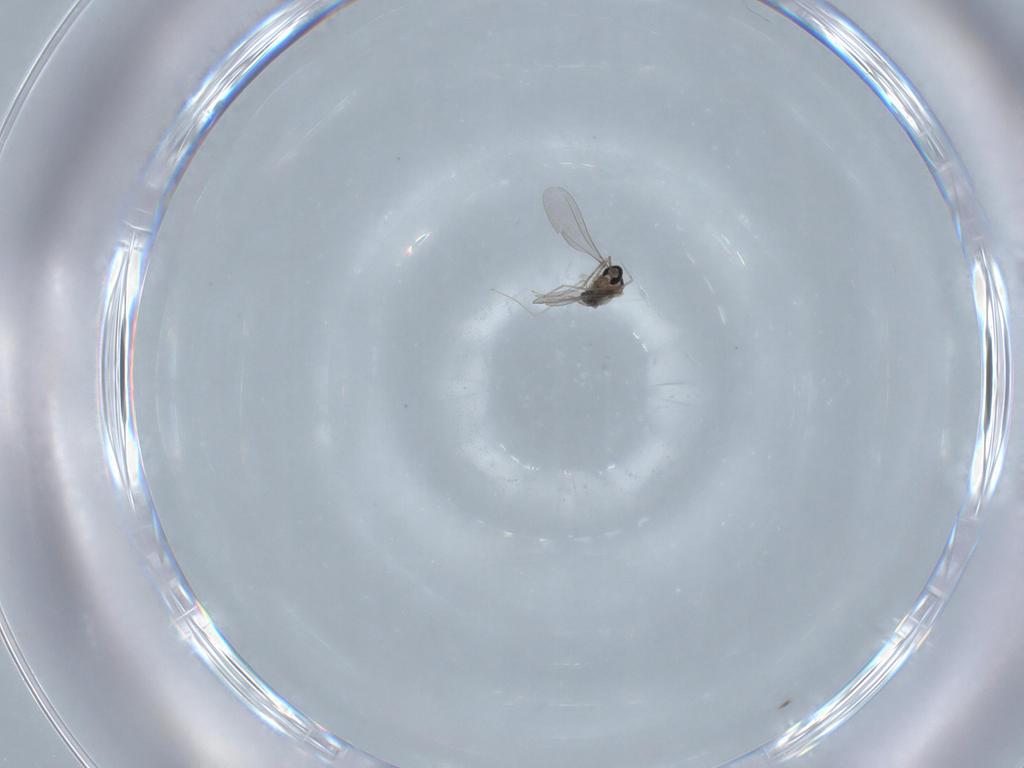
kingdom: Animalia
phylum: Arthropoda
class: Insecta
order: Diptera
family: Cecidomyiidae
